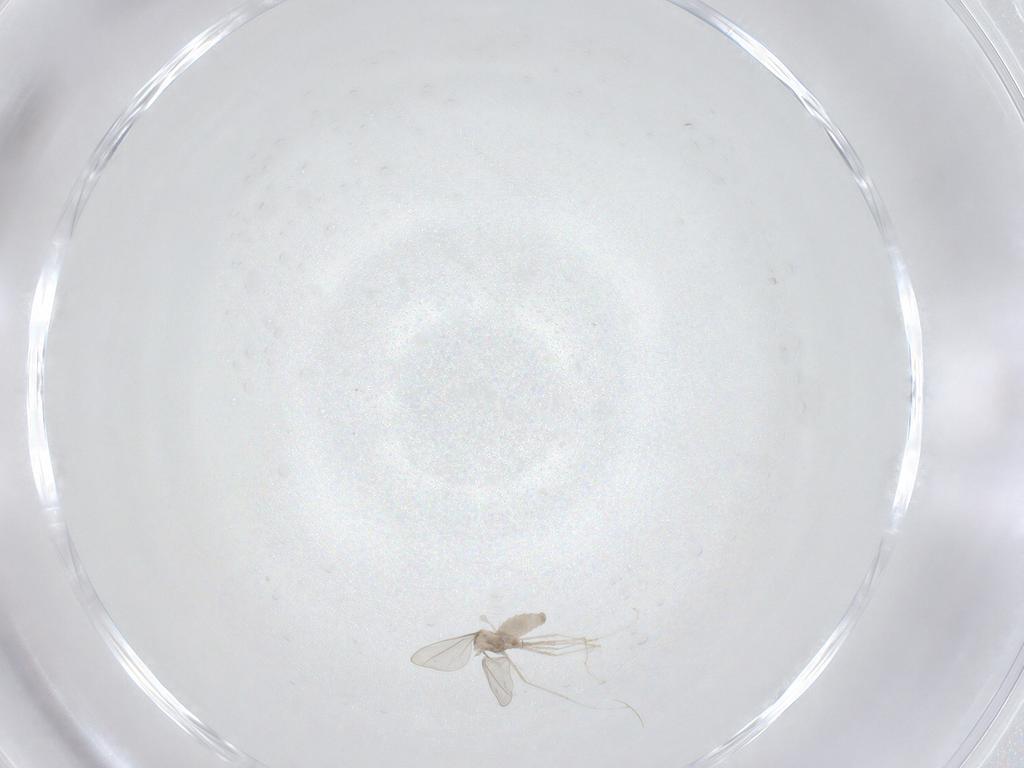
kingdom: Animalia
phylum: Arthropoda
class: Insecta
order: Diptera
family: Cecidomyiidae
